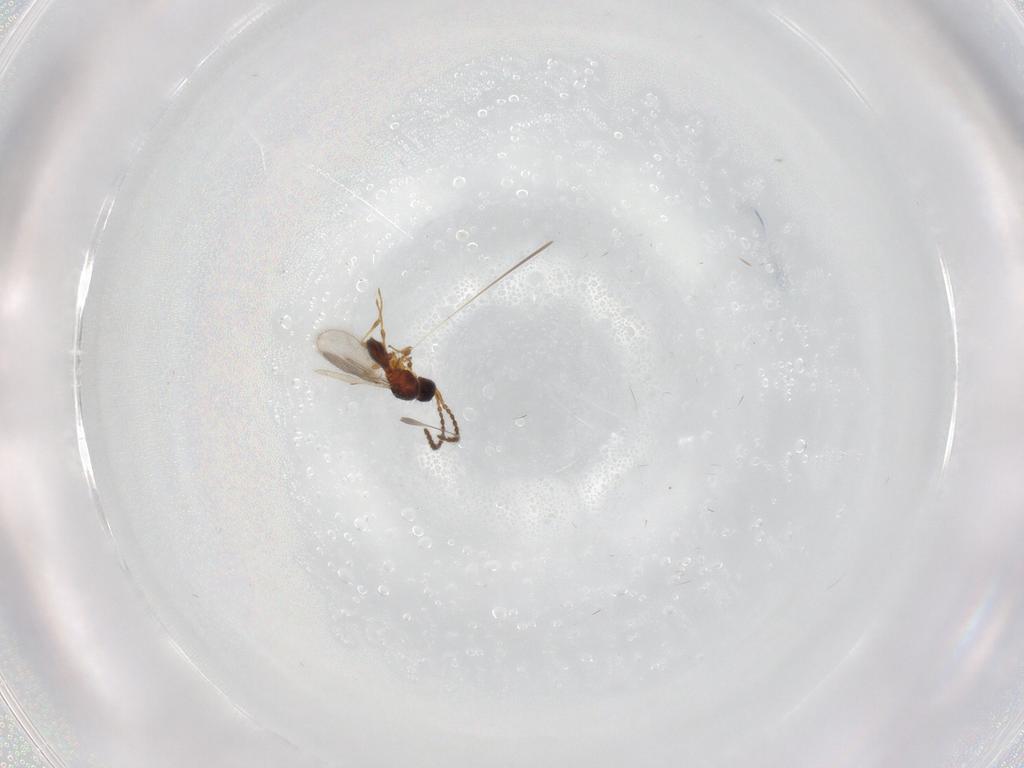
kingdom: Animalia
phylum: Arthropoda
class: Insecta
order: Hymenoptera
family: Diapriidae
